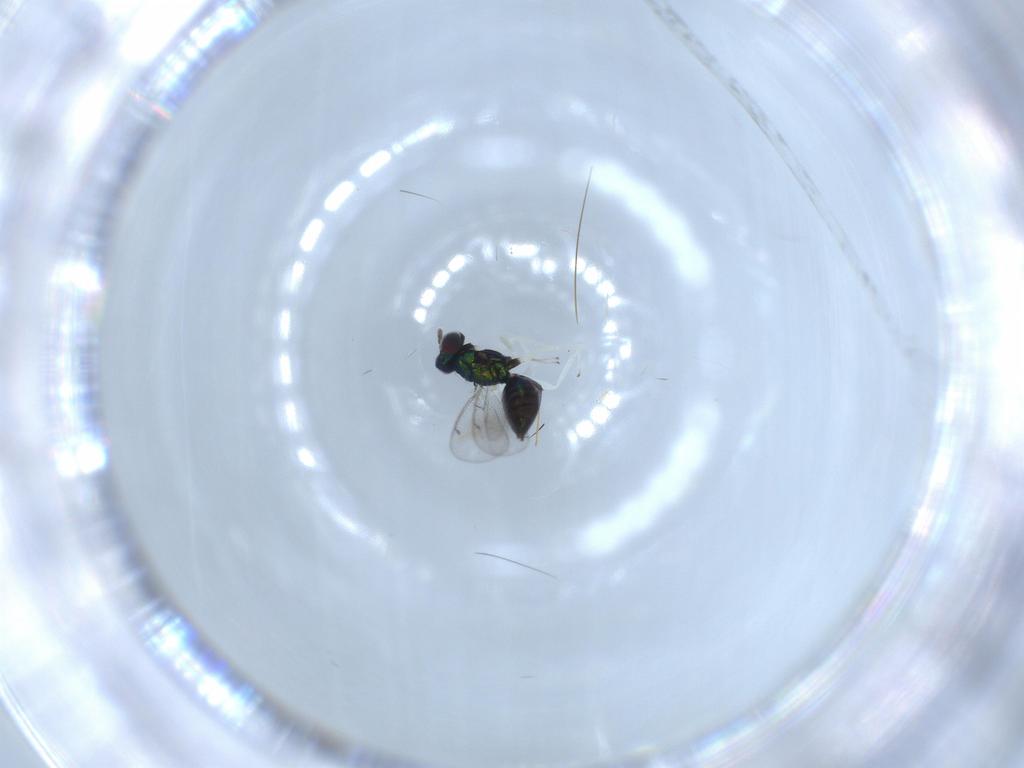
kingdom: Animalia
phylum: Arthropoda
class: Insecta
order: Hymenoptera
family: Eulophidae
